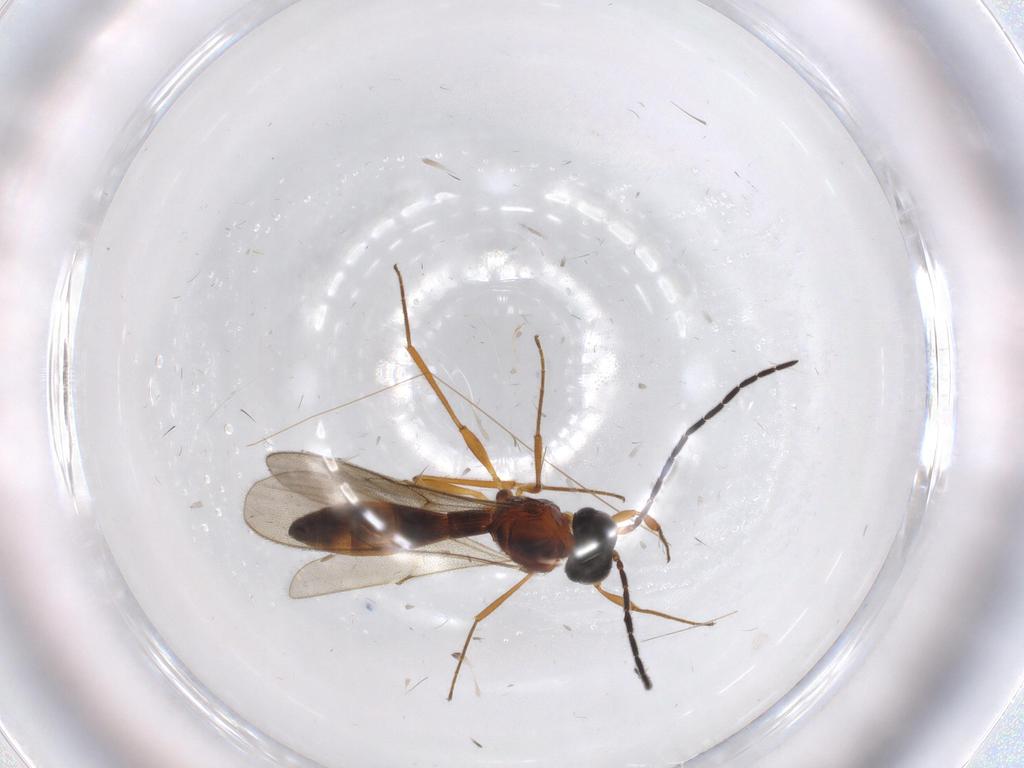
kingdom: Animalia
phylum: Arthropoda
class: Insecta
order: Hymenoptera
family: Scelionidae
